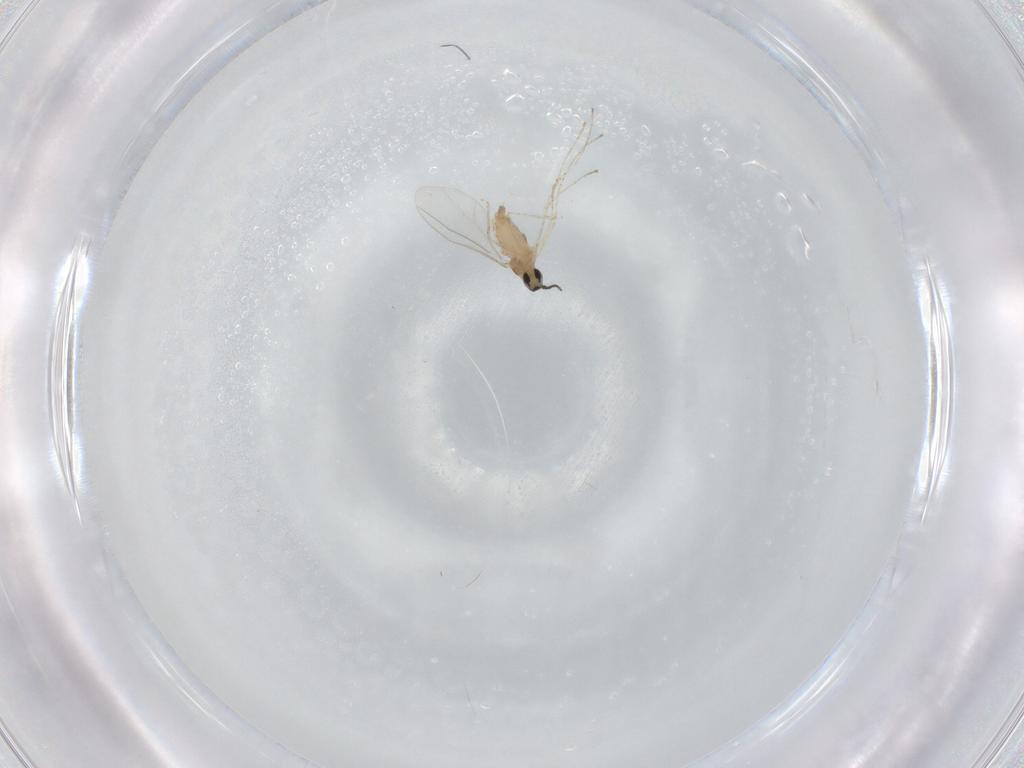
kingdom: Animalia
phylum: Arthropoda
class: Insecta
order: Diptera
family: Cecidomyiidae
